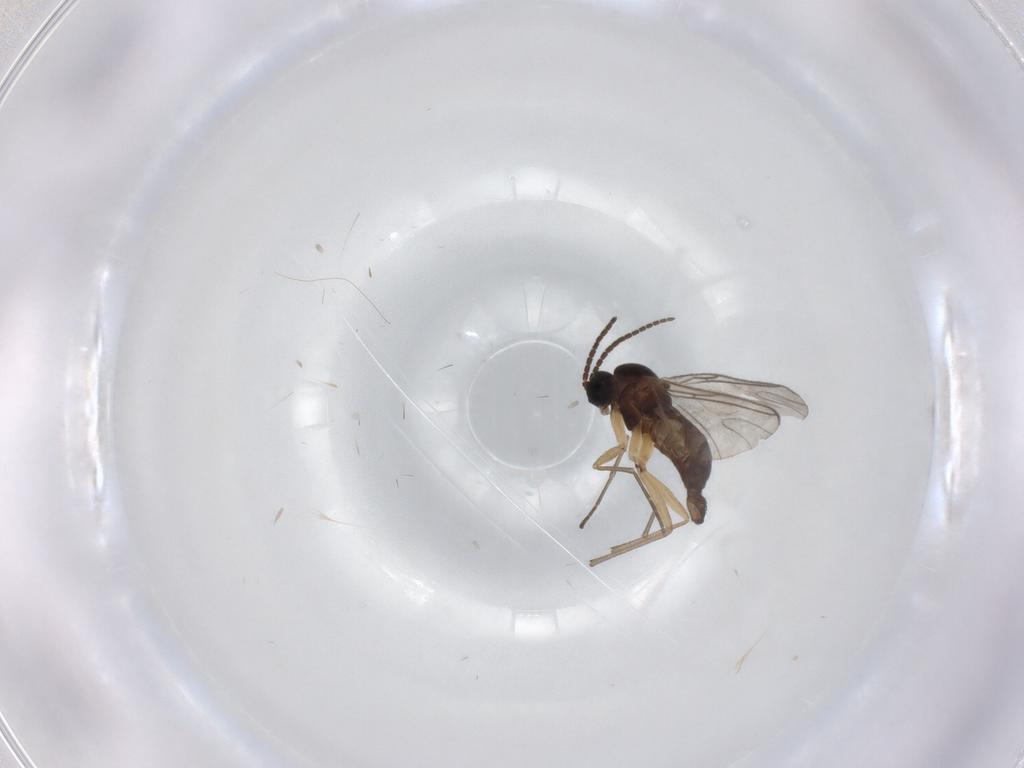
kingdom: Animalia
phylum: Arthropoda
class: Insecta
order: Diptera
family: Sciaridae
